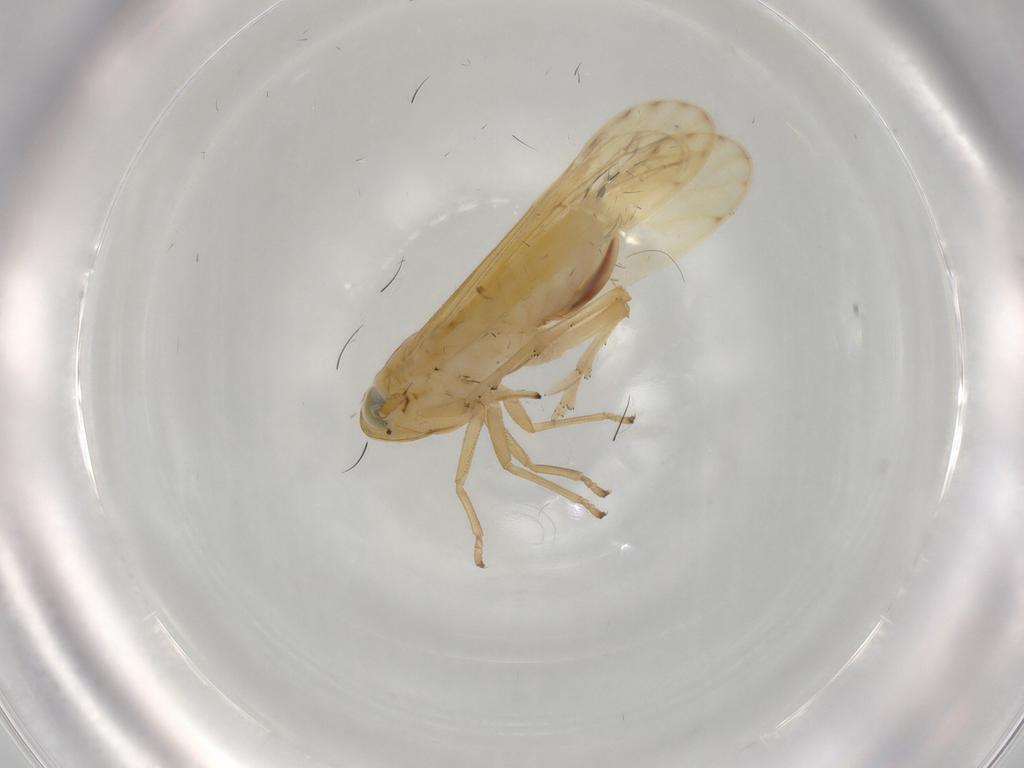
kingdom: Animalia
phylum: Arthropoda
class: Insecta
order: Hemiptera
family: Delphacidae
